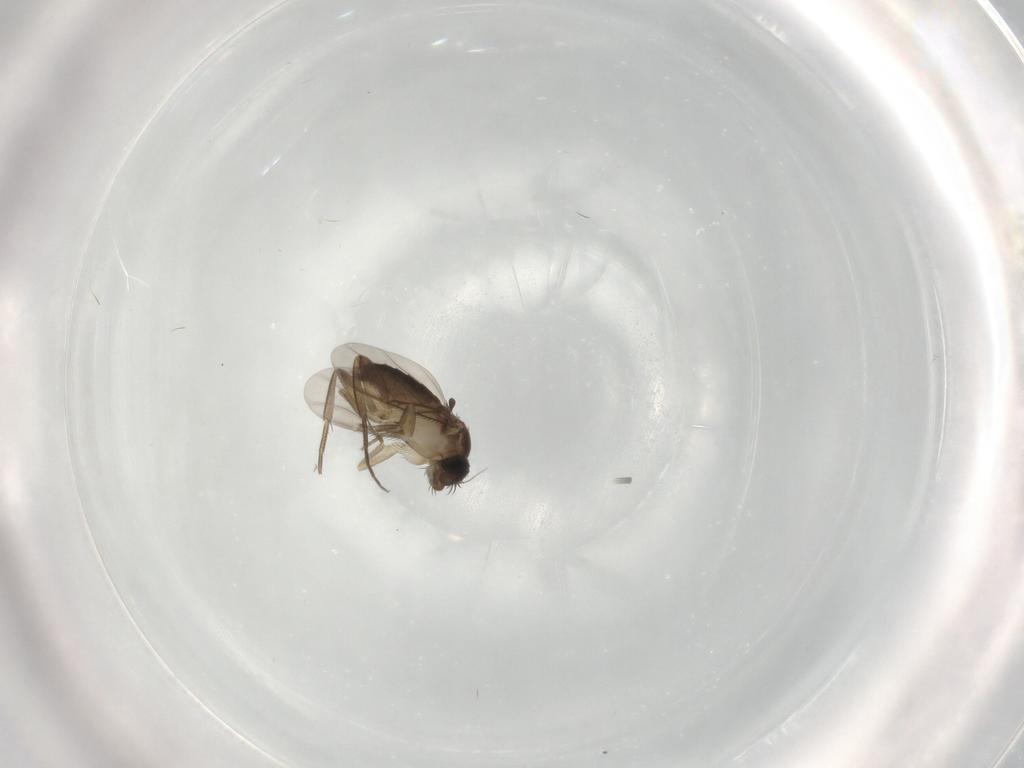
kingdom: Animalia
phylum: Arthropoda
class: Insecta
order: Diptera
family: Phoridae
